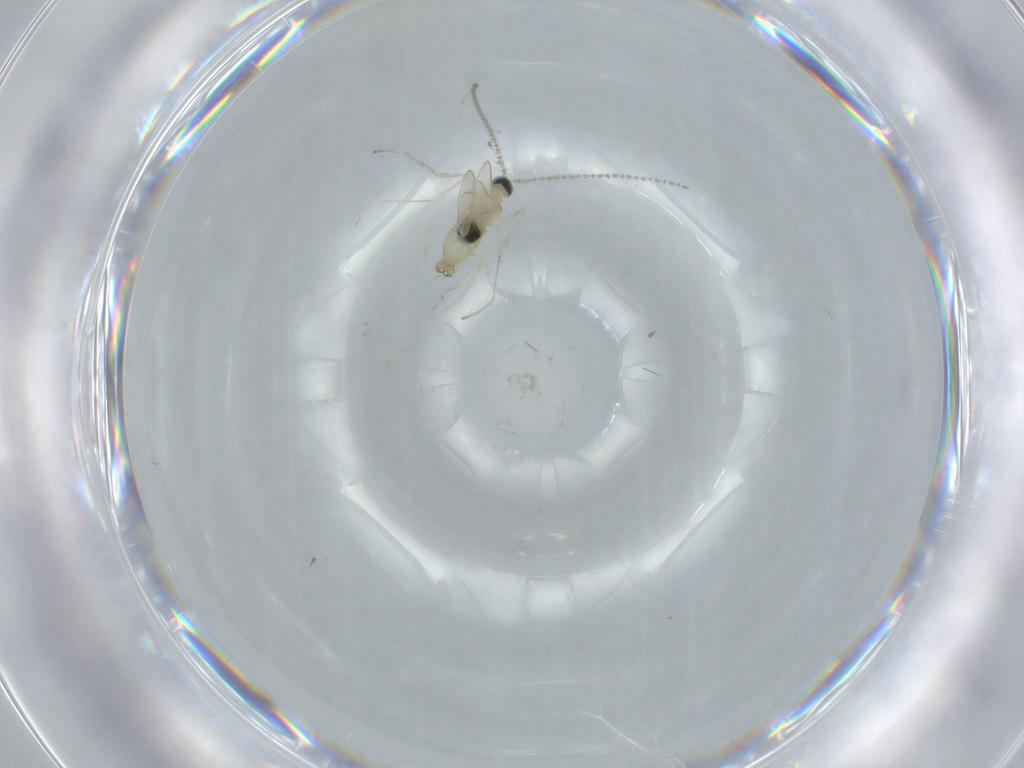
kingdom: Animalia
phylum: Arthropoda
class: Insecta
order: Diptera
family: Cecidomyiidae
